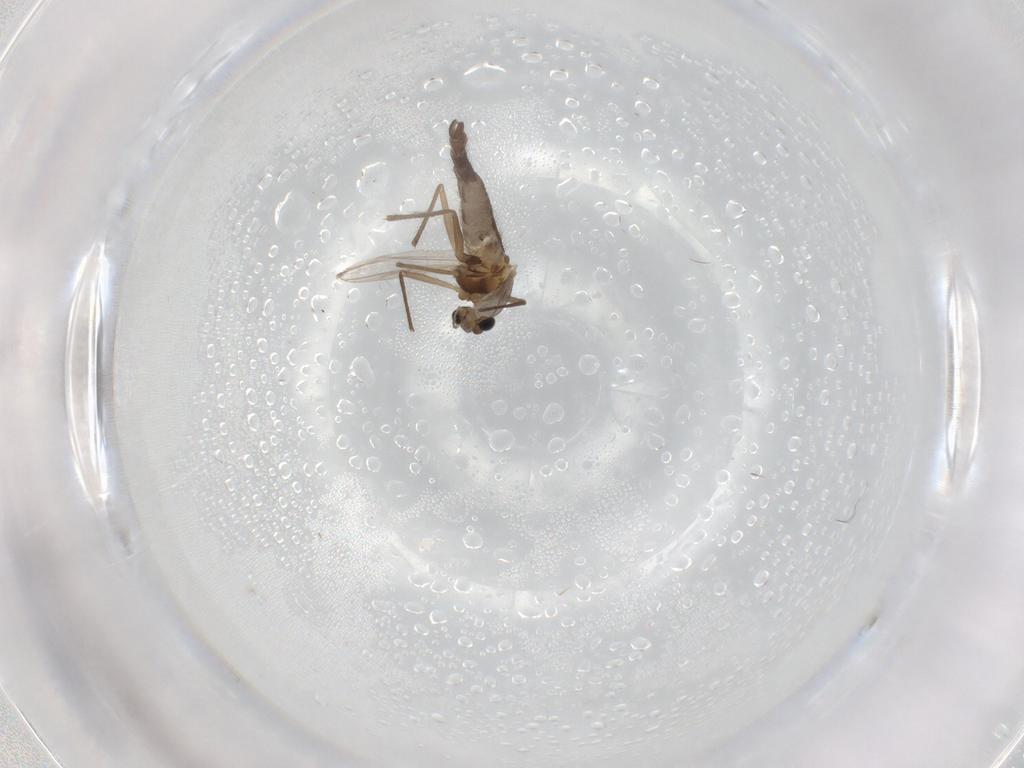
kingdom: Animalia
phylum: Arthropoda
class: Insecta
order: Diptera
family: Chironomidae
